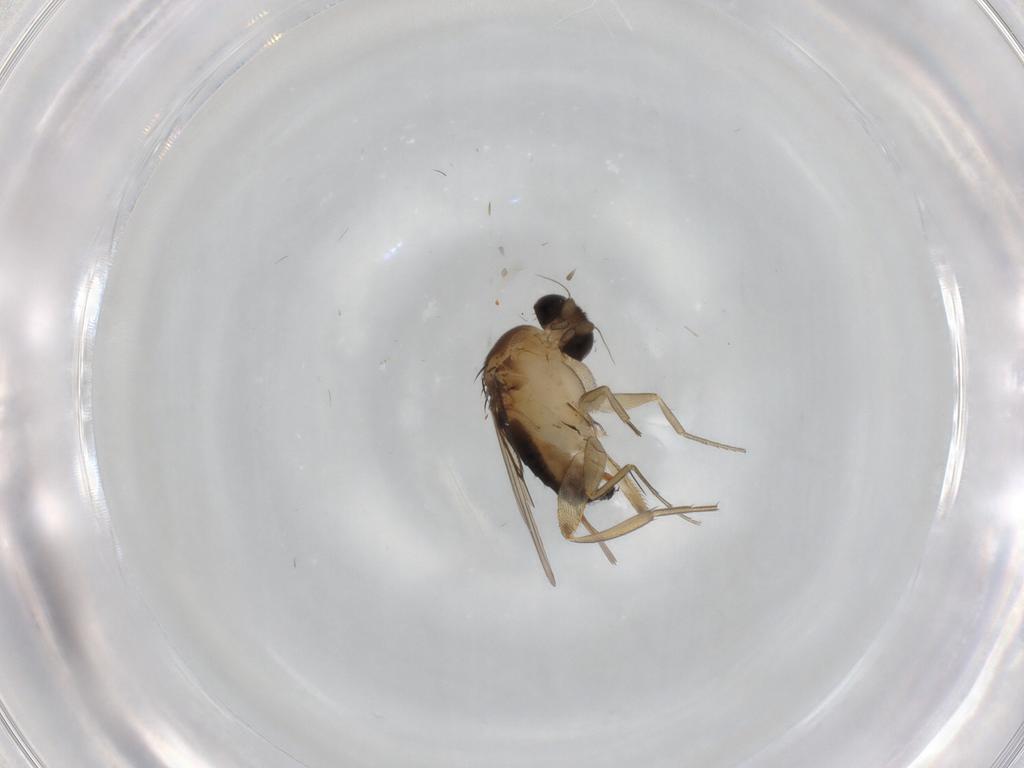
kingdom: Animalia
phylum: Arthropoda
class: Insecta
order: Diptera
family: Phoridae
